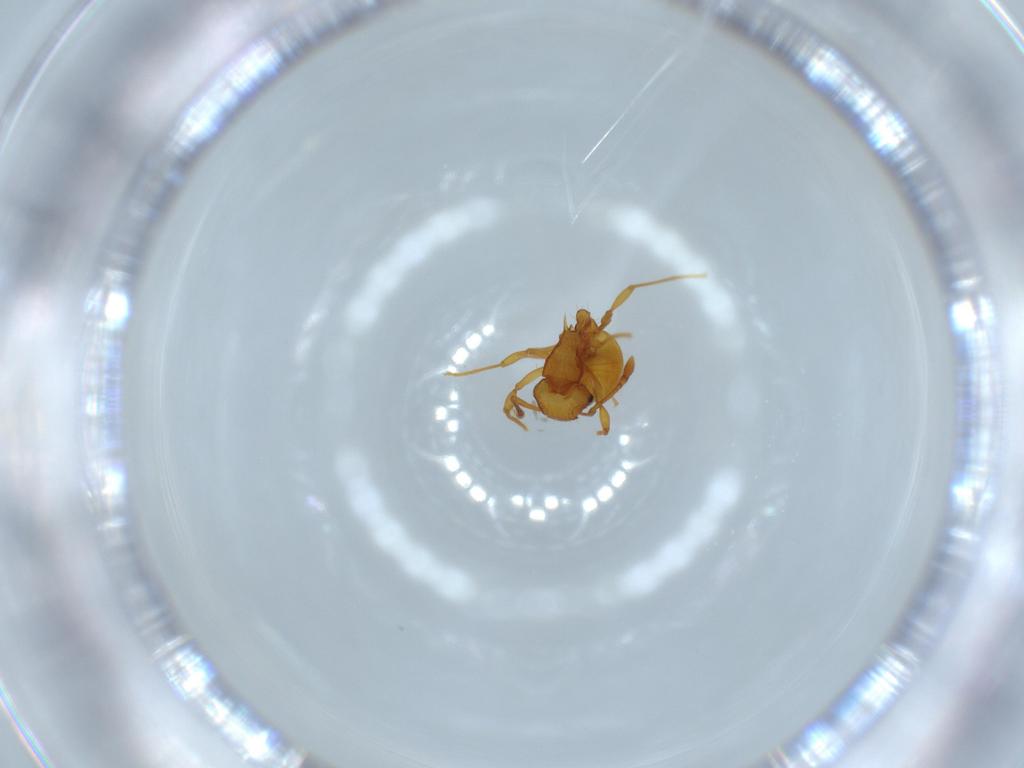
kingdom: Animalia
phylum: Arthropoda
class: Insecta
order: Hymenoptera
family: Formicidae
